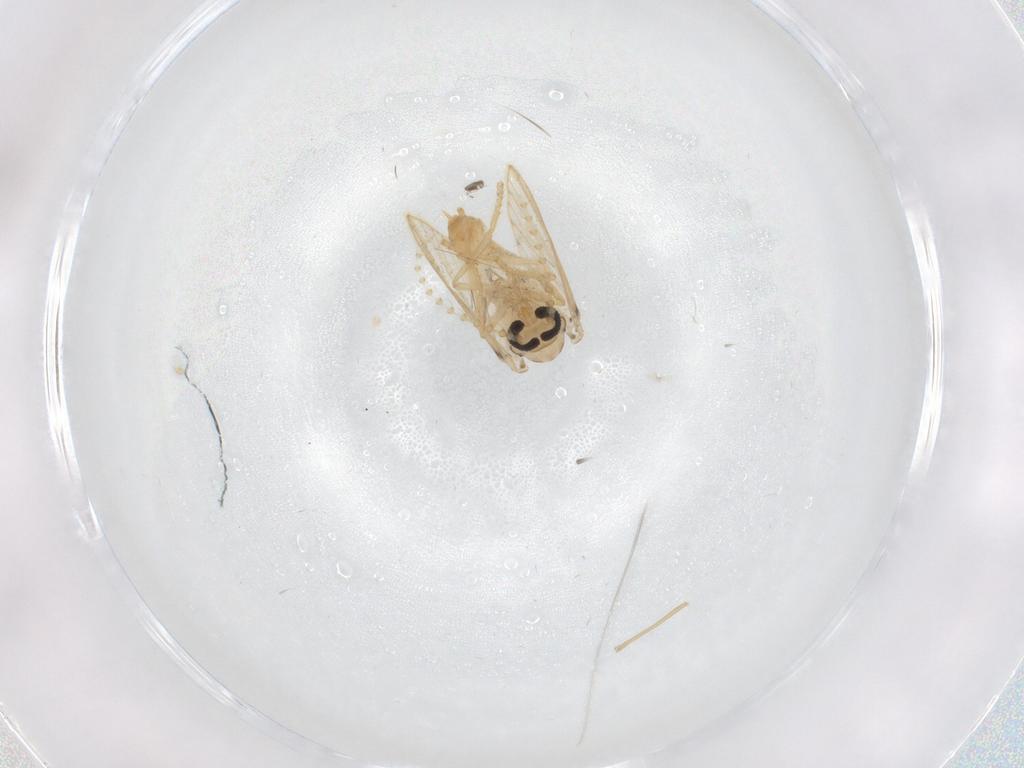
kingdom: Animalia
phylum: Arthropoda
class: Insecta
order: Diptera
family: Psychodidae
